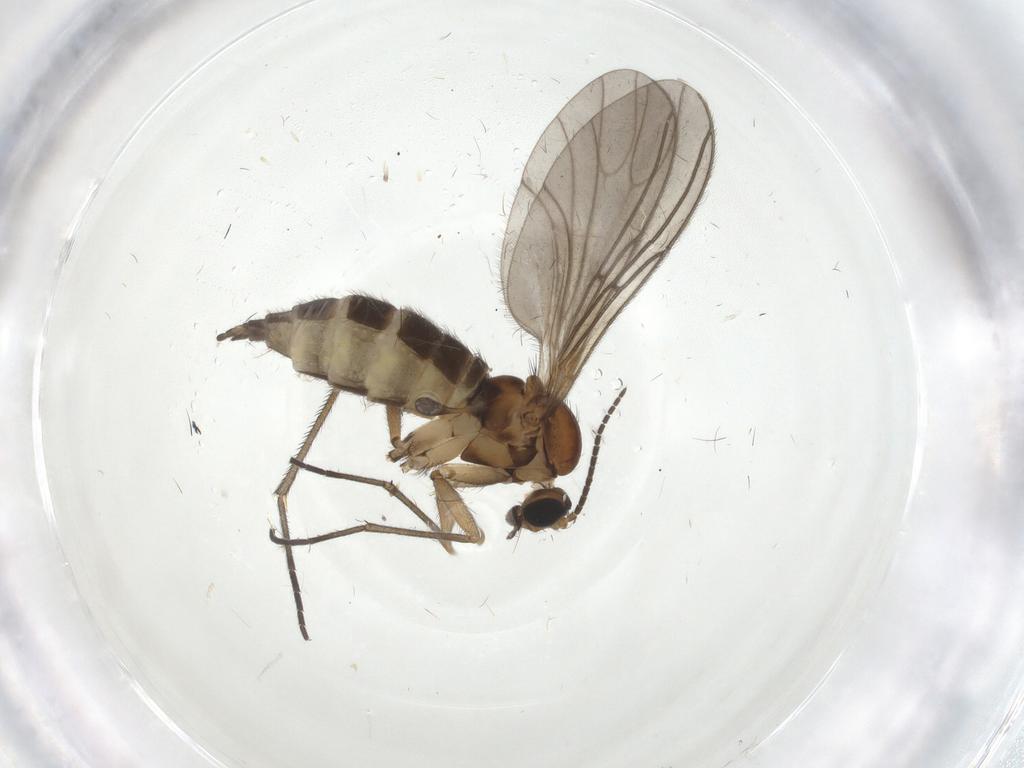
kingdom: Animalia
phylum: Arthropoda
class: Insecta
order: Diptera
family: Sciaridae
